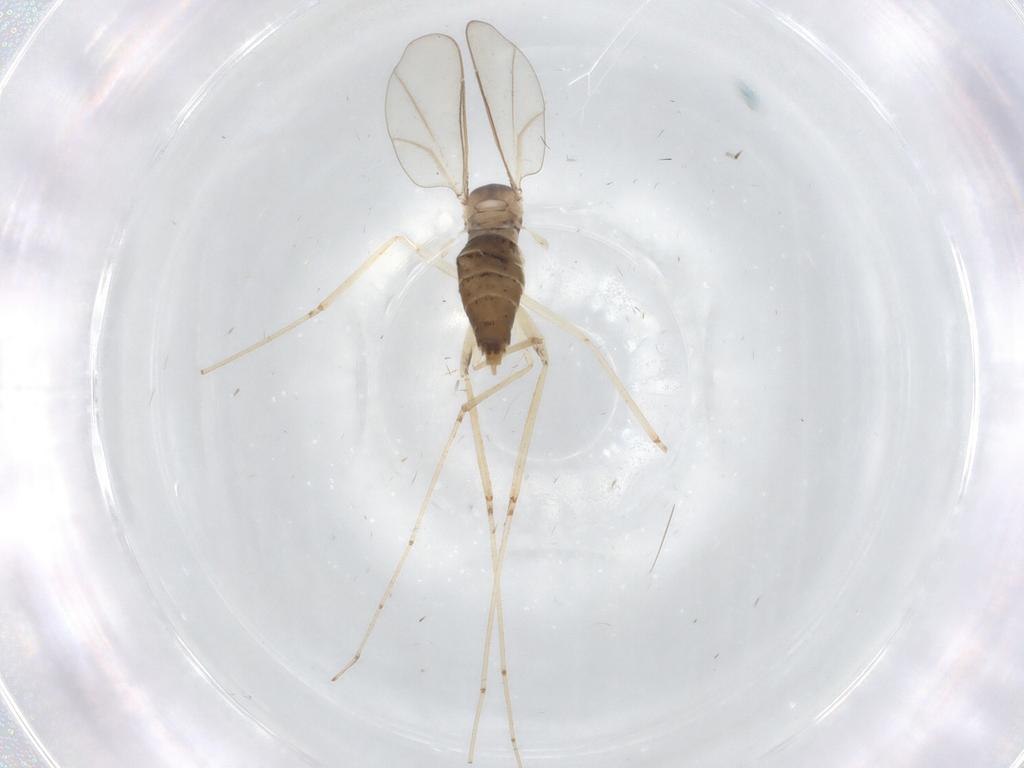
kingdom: Animalia
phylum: Arthropoda
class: Insecta
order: Diptera
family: Cecidomyiidae
